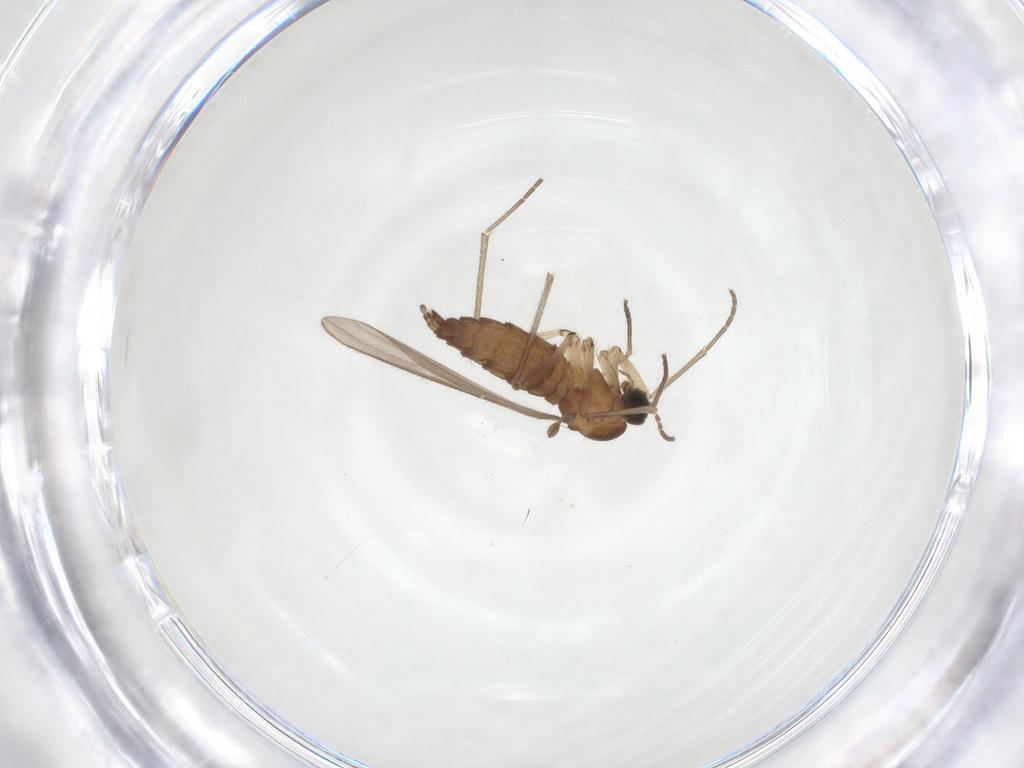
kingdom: Animalia
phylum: Arthropoda
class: Insecta
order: Diptera
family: Sciaridae
